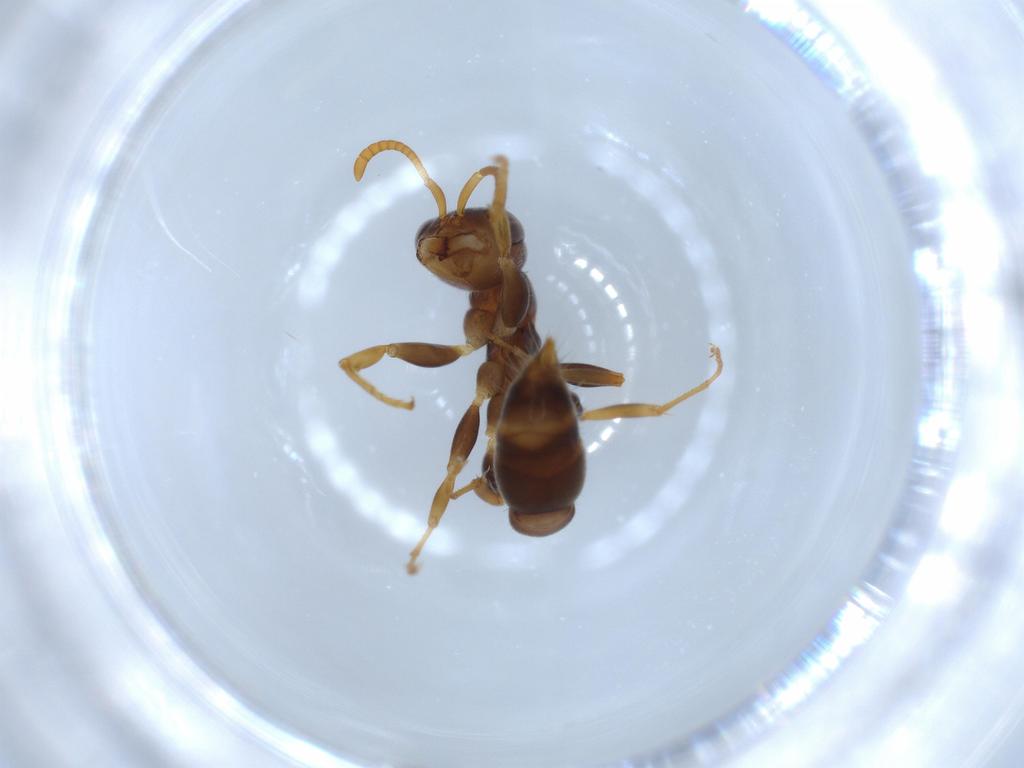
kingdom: Animalia
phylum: Arthropoda
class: Insecta
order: Hymenoptera
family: Formicidae
